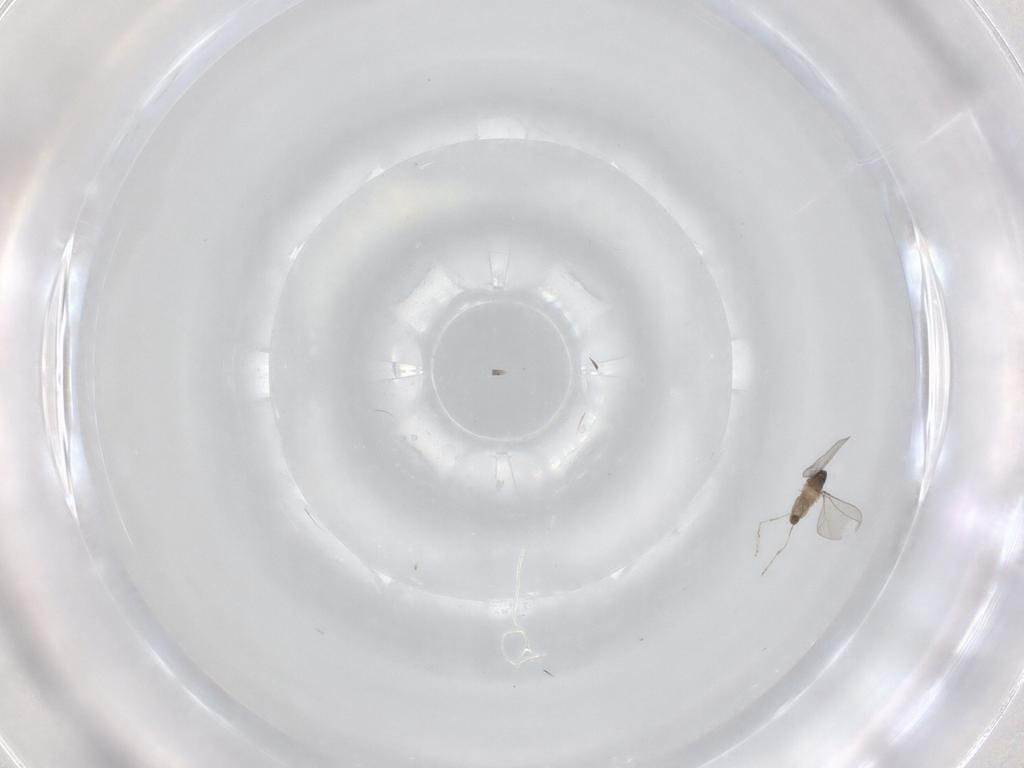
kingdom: Animalia
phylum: Arthropoda
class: Insecta
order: Diptera
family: Cecidomyiidae
